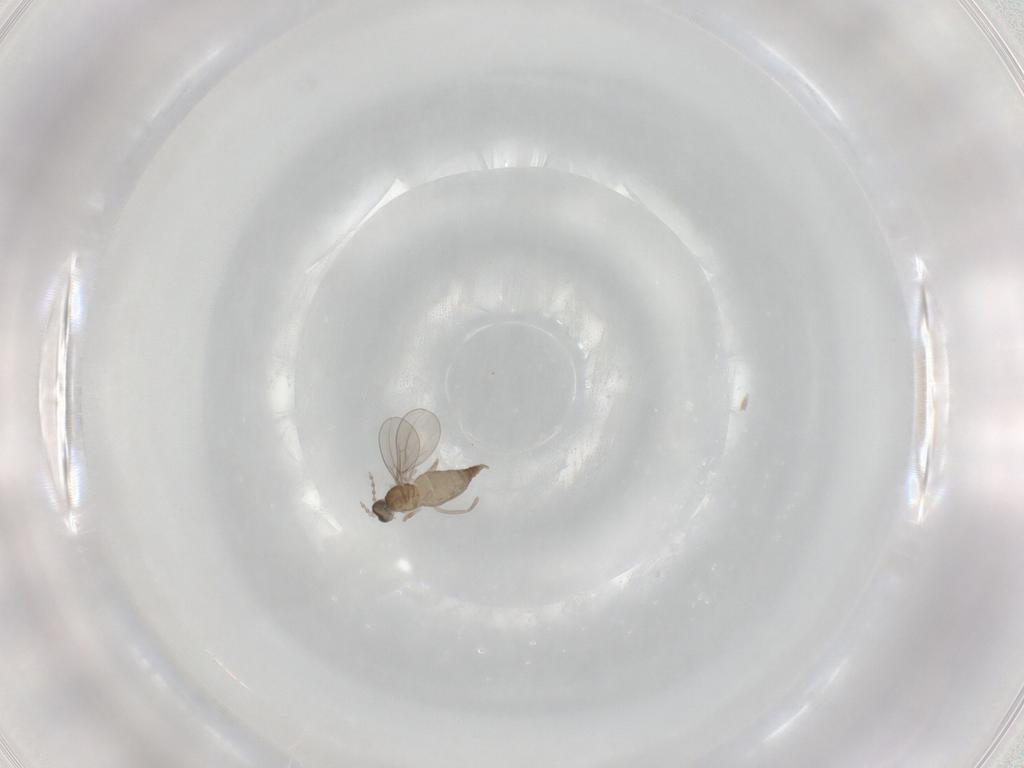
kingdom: Animalia
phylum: Arthropoda
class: Insecta
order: Diptera
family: Cecidomyiidae
